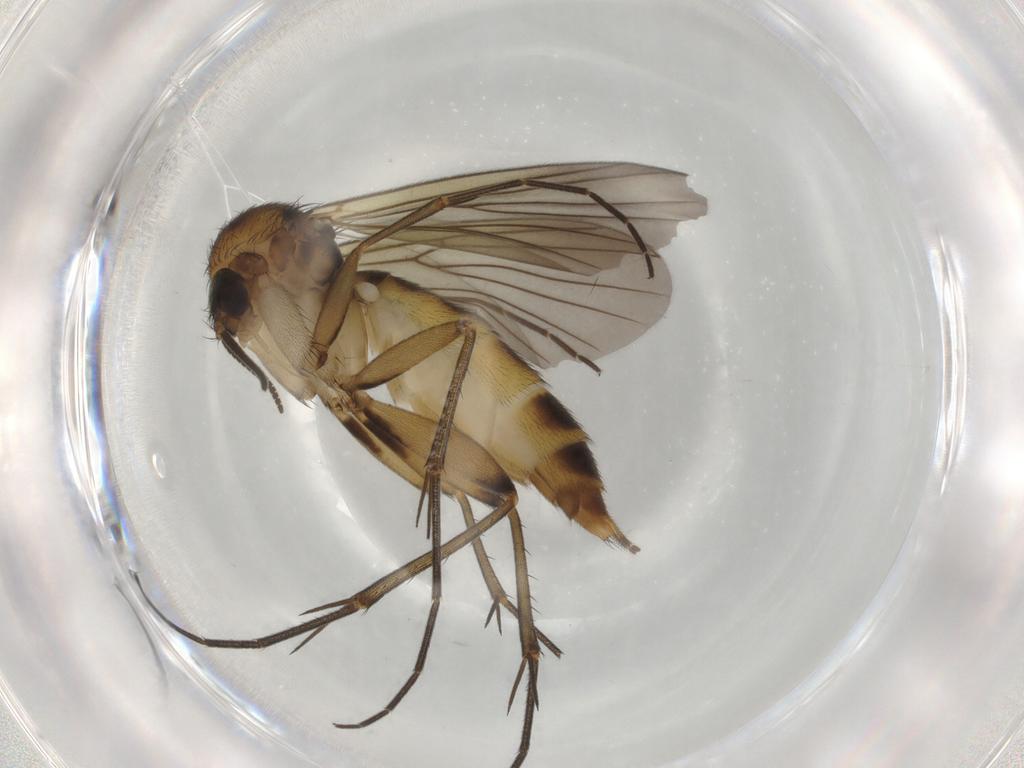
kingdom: Animalia
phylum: Arthropoda
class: Insecta
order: Diptera
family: Mycetophilidae
